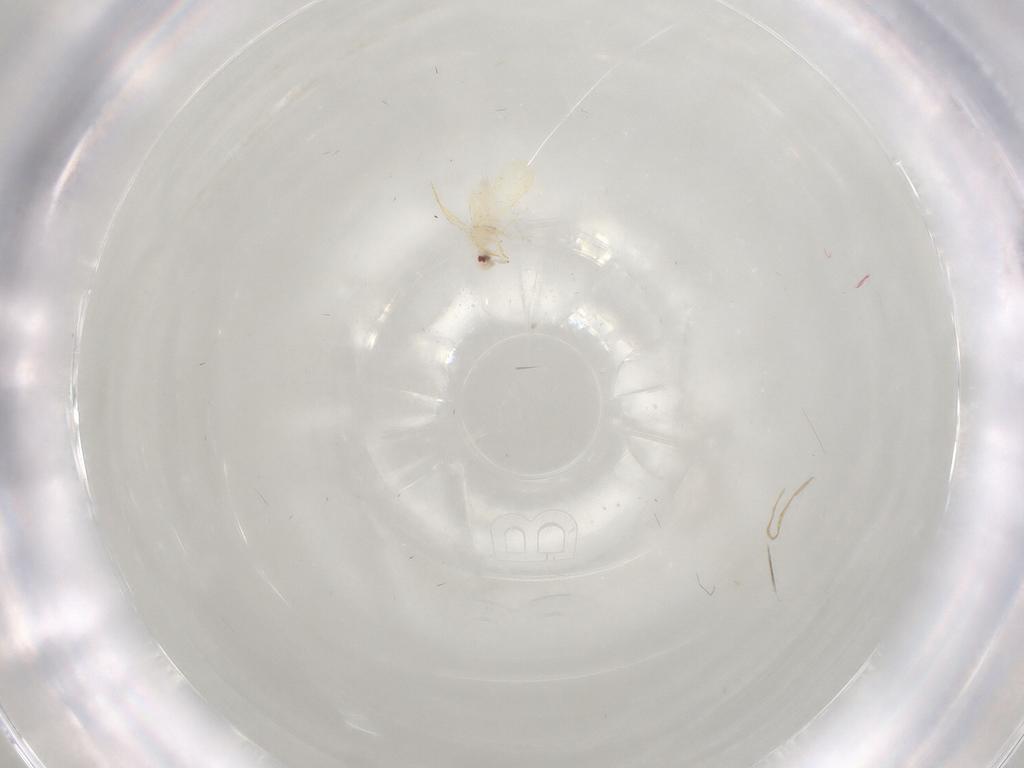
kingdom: Animalia
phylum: Arthropoda
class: Insecta
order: Hemiptera
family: Aleyrodidae
